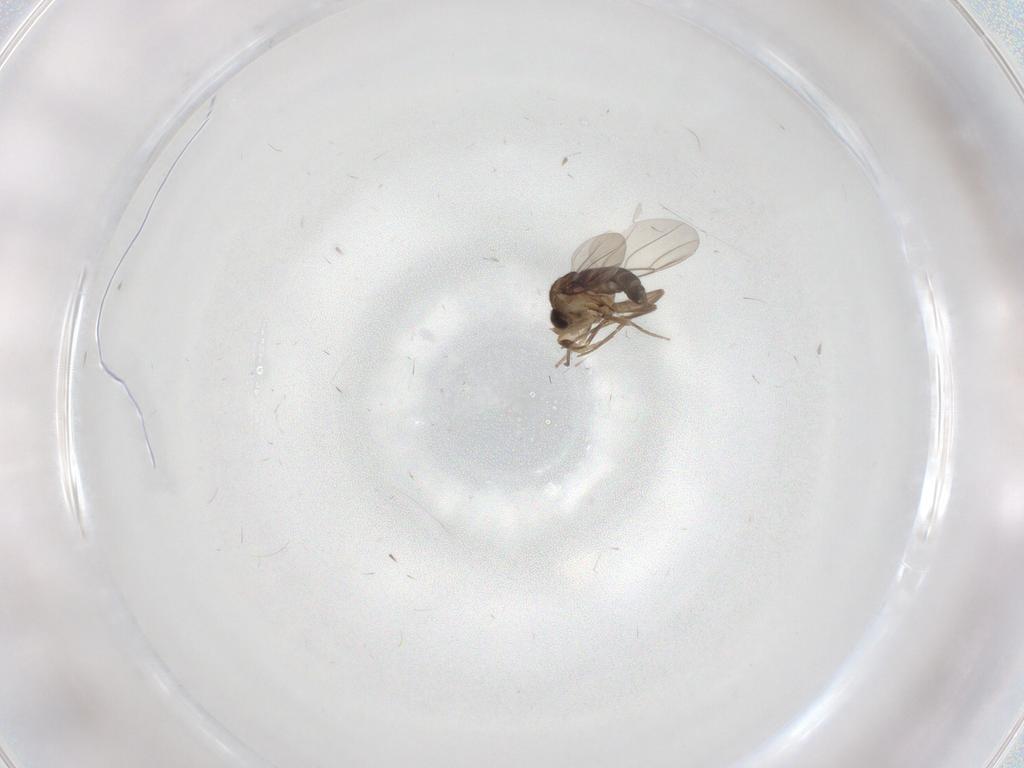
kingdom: Animalia
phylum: Arthropoda
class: Insecta
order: Diptera
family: Phoridae
